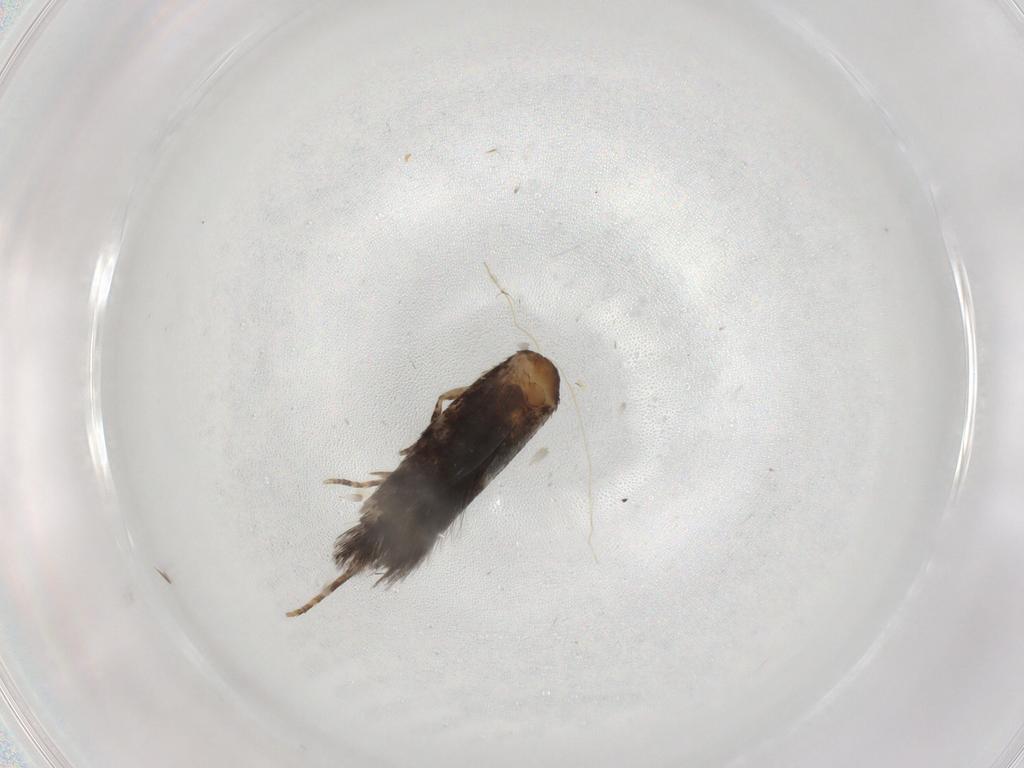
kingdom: Animalia
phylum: Arthropoda
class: Insecta
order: Lepidoptera
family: Elachistidae
